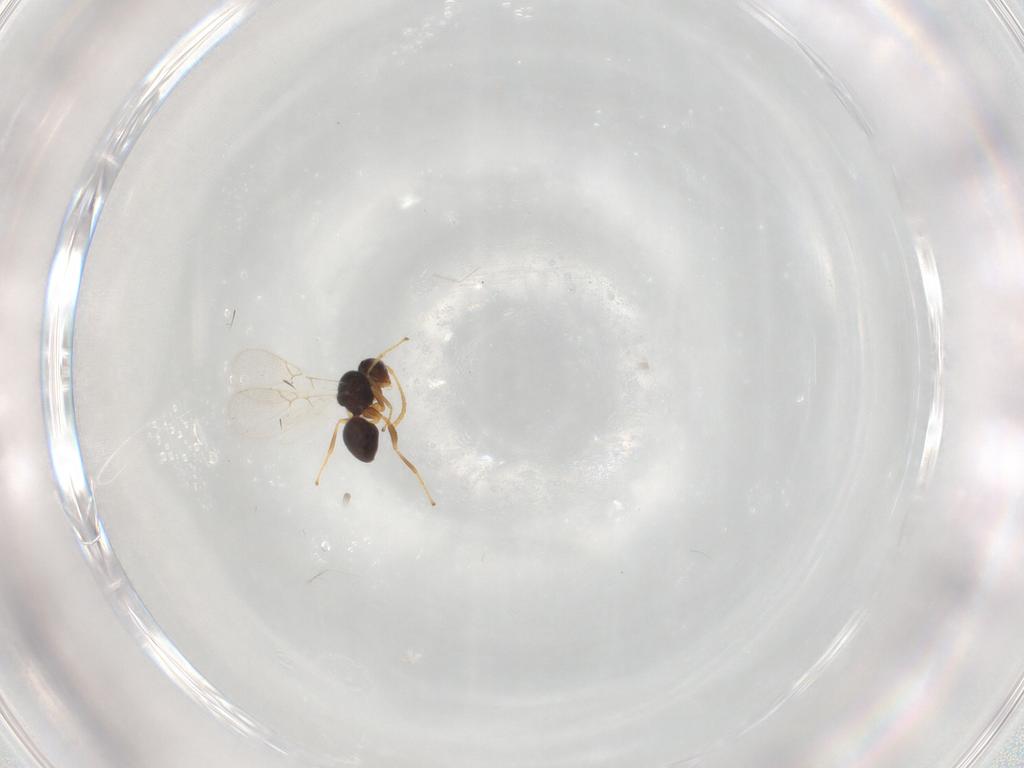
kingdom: Animalia
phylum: Arthropoda
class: Insecta
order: Hymenoptera
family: Figitidae
